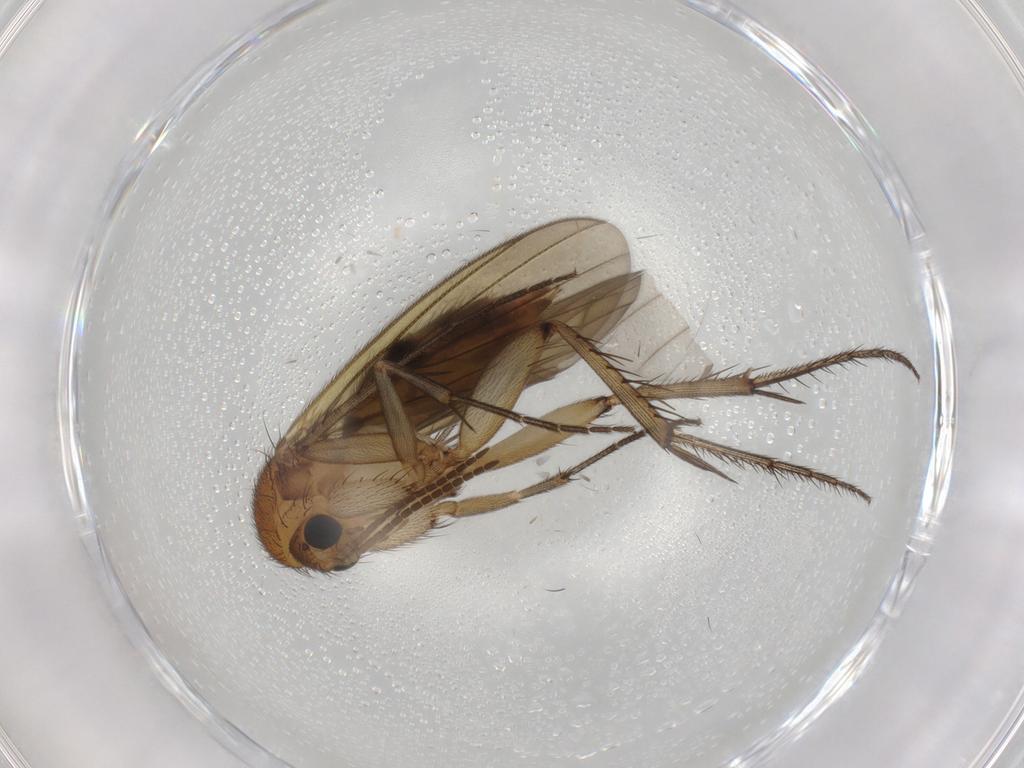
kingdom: Animalia
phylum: Arthropoda
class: Insecta
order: Diptera
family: Mycetophilidae
